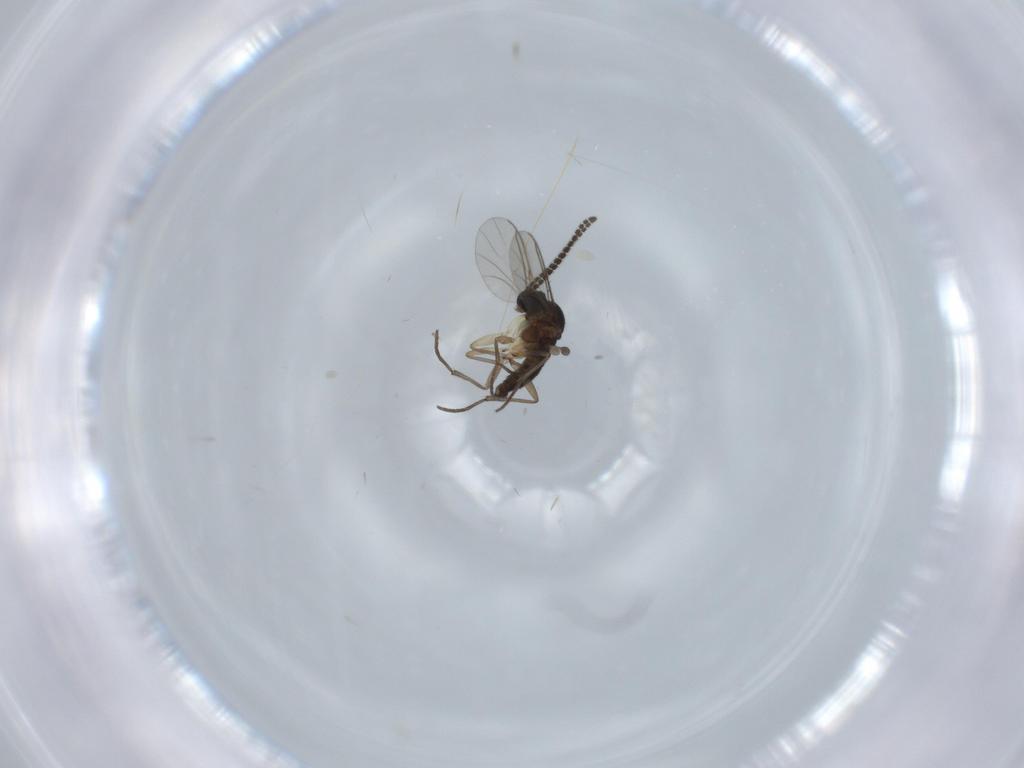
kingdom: Animalia
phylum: Arthropoda
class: Insecta
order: Diptera
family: Sciaridae
